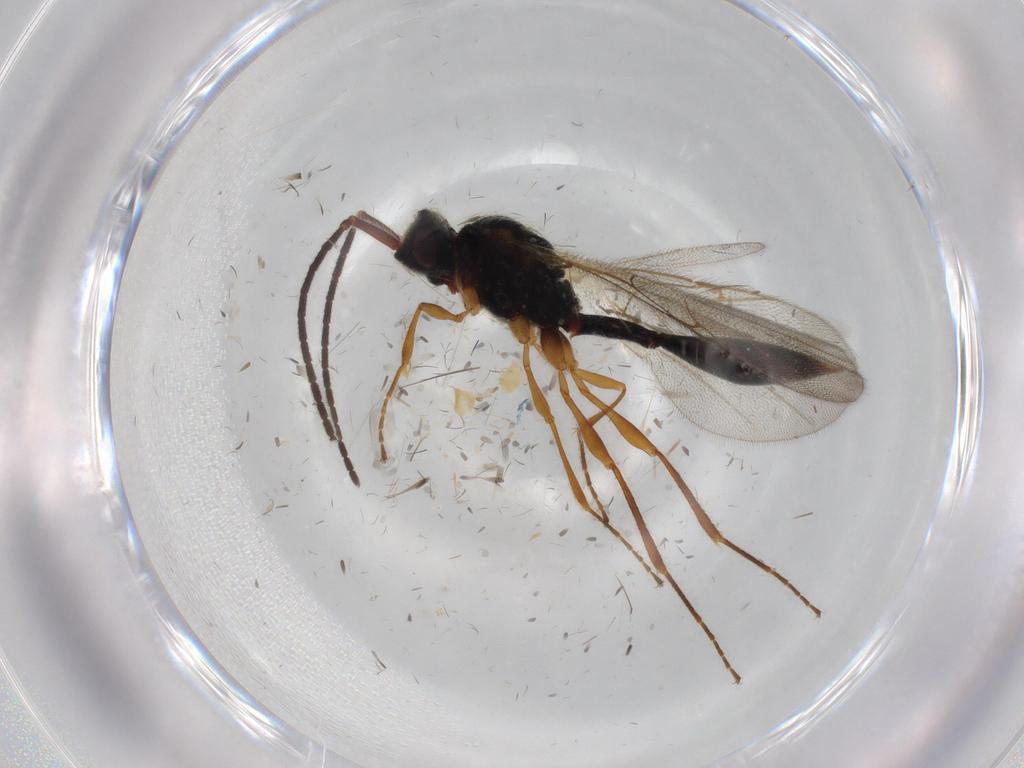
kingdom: Animalia
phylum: Arthropoda
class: Insecta
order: Hymenoptera
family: Diapriidae
